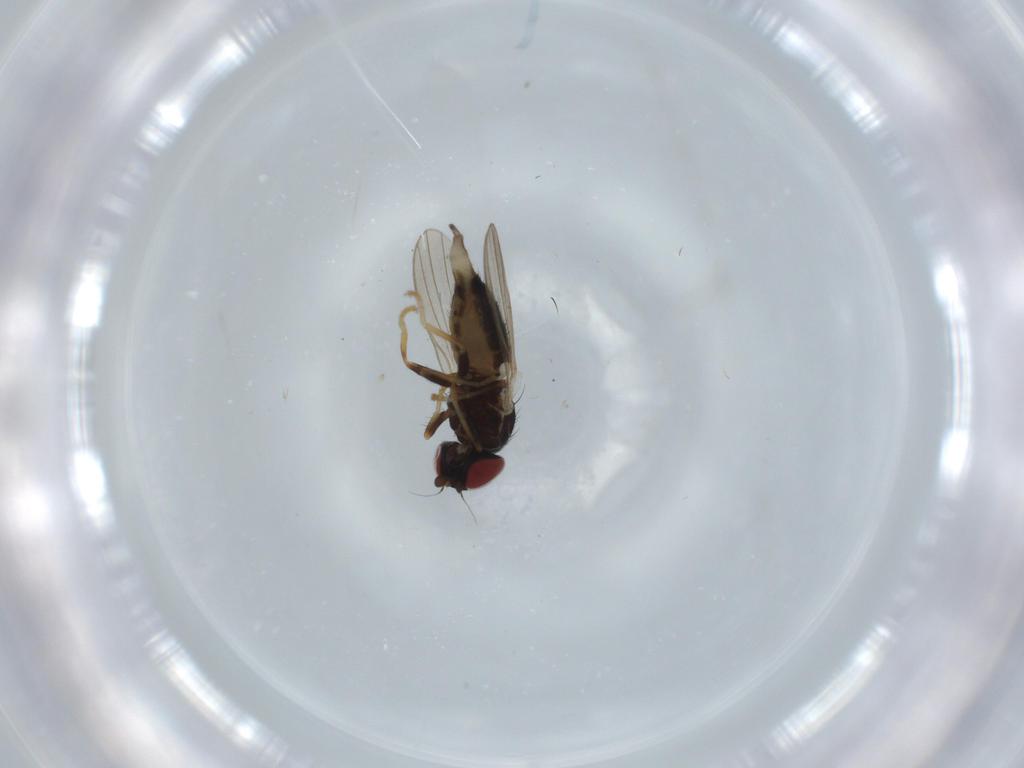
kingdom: Animalia
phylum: Arthropoda
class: Insecta
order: Diptera
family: Chamaemyiidae
